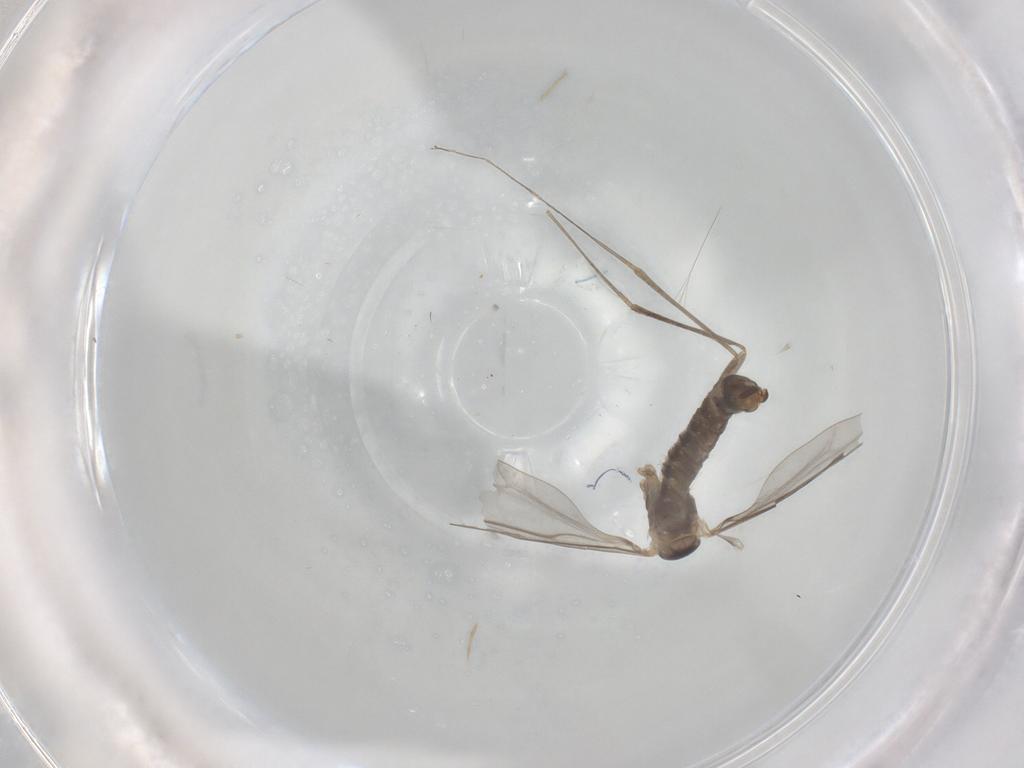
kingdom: Animalia
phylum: Arthropoda
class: Insecta
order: Diptera
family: Cecidomyiidae
